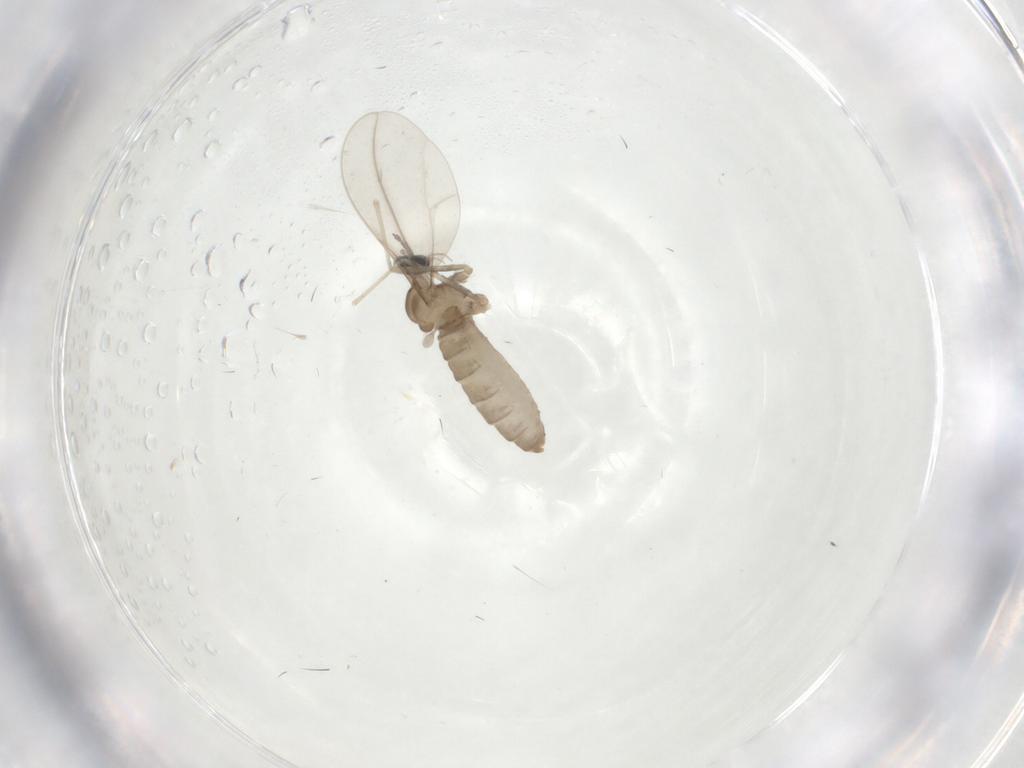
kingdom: Animalia
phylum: Arthropoda
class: Insecta
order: Diptera
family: Cecidomyiidae
